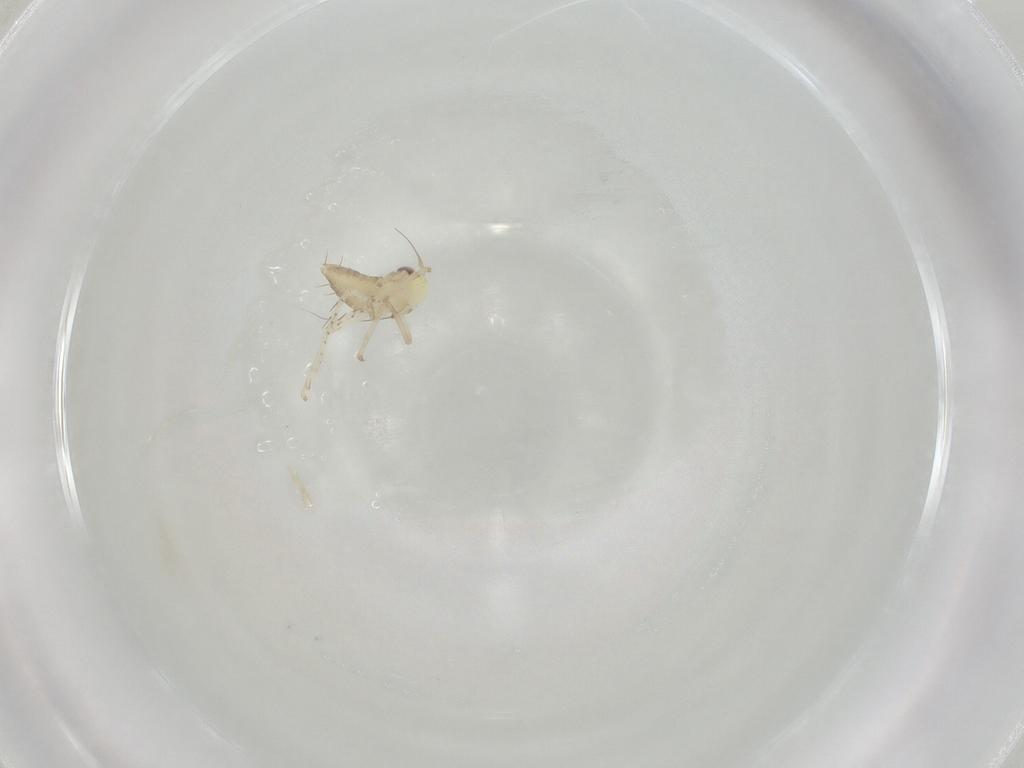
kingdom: Animalia
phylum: Arthropoda
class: Insecta
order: Hemiptera
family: Cicadellidae
